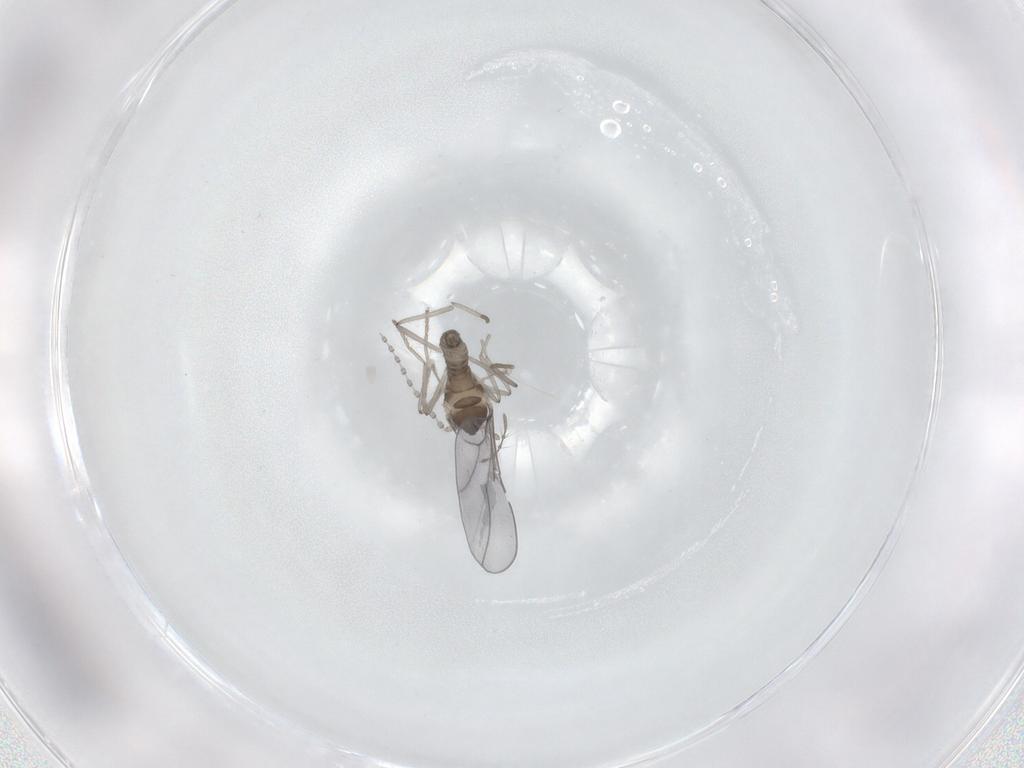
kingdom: Animalia
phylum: Arthropoda
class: Insecta
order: Diptera
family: Cecidomyiidae
